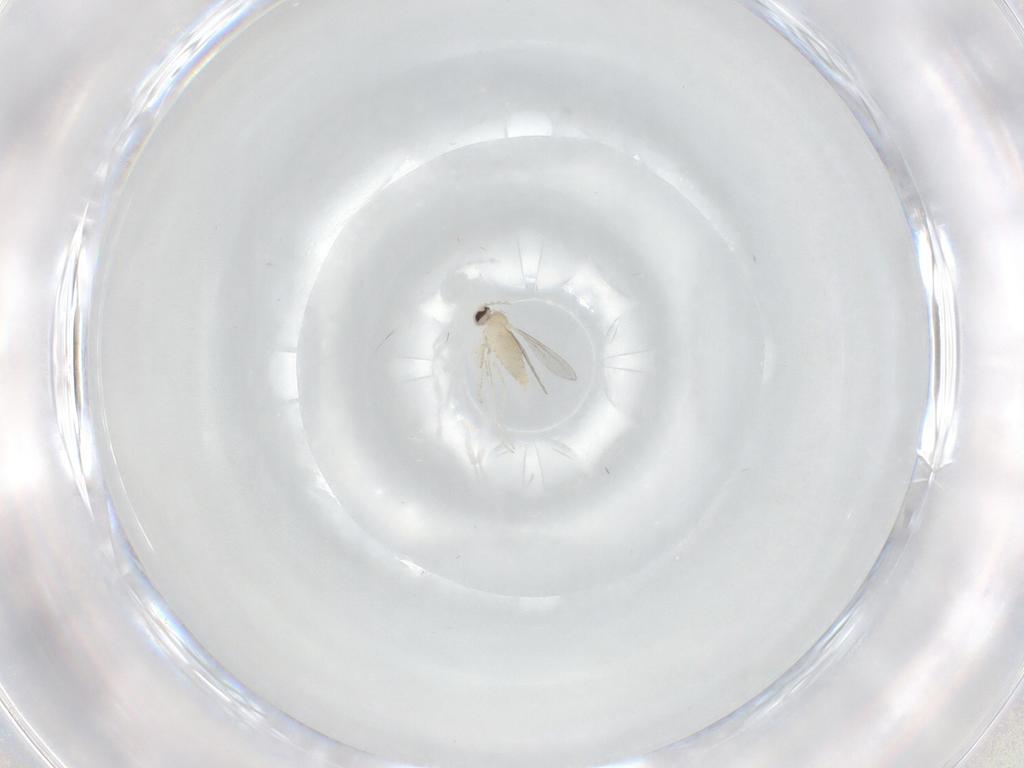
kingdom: Animalia
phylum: Arthropoda
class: Insecta
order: Diptera
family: Cecidomyiidae
